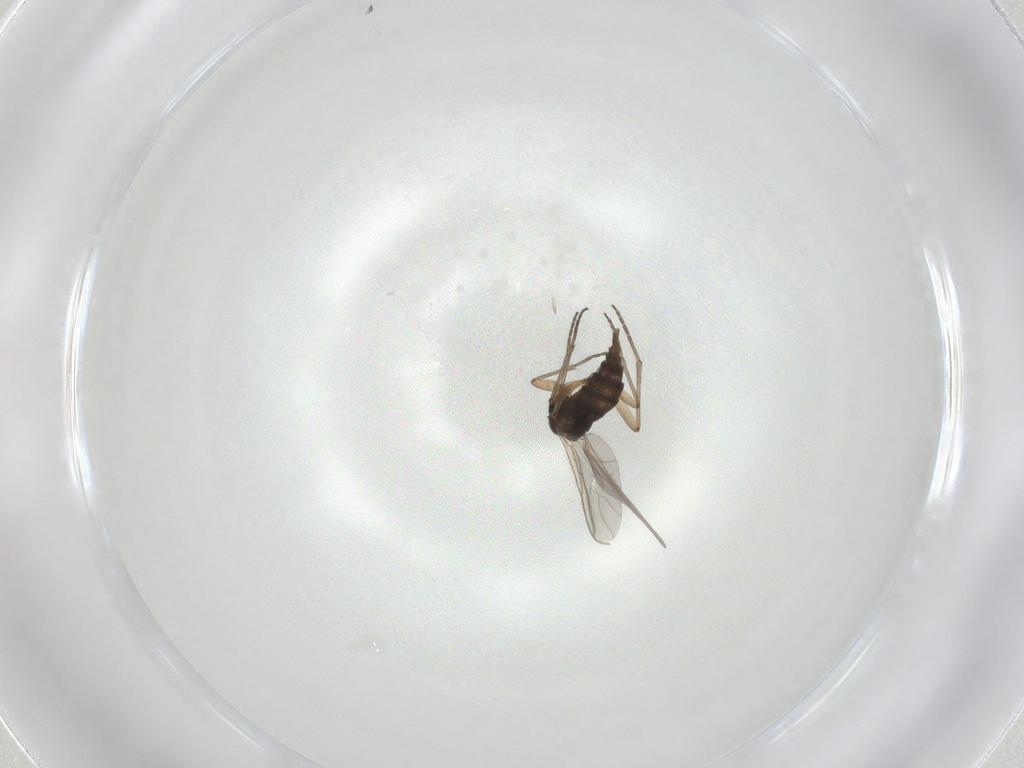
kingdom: Animalia
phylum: Arthropoda
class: Insecta
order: Diptera
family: Sciaridae
